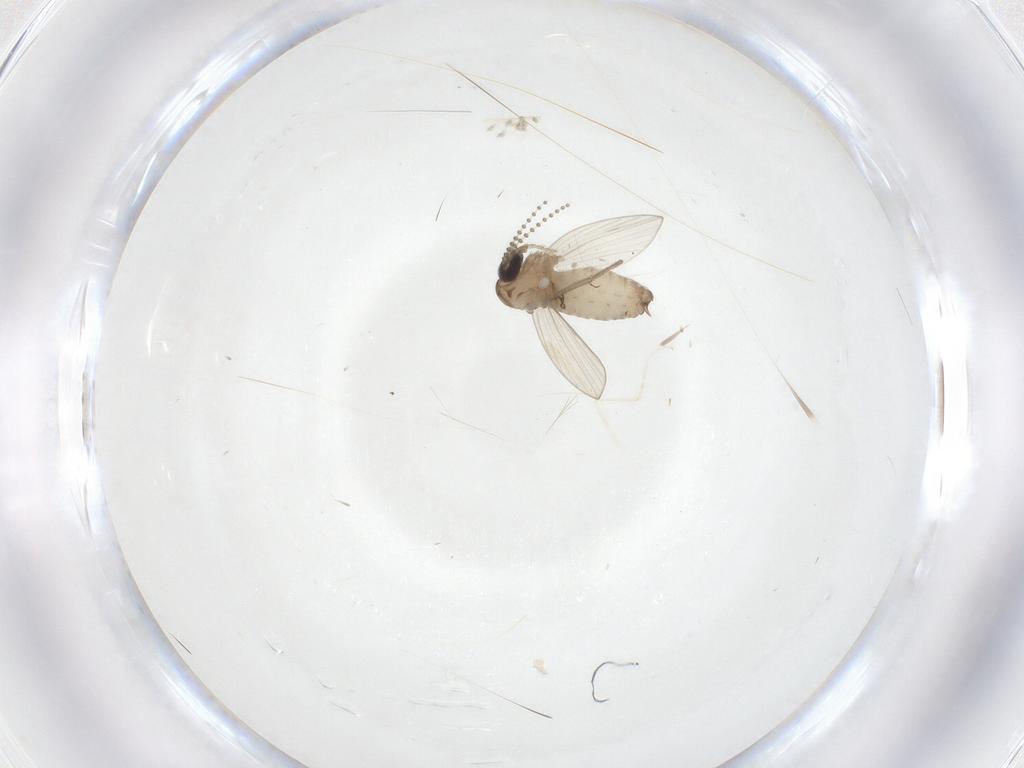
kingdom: Animalia
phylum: Arthropoda
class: Insecta
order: Diptera
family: Psychodidae
